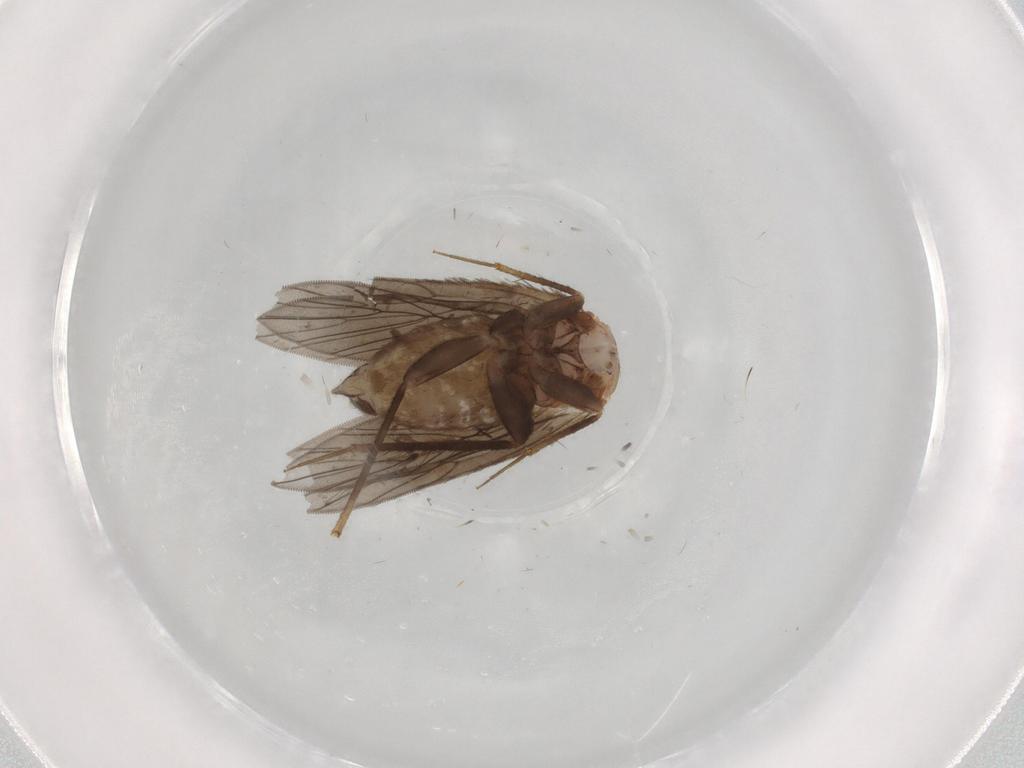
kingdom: Animalia
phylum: Arthropoda
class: Insecta
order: Psocodea
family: Lepidopsocidae
